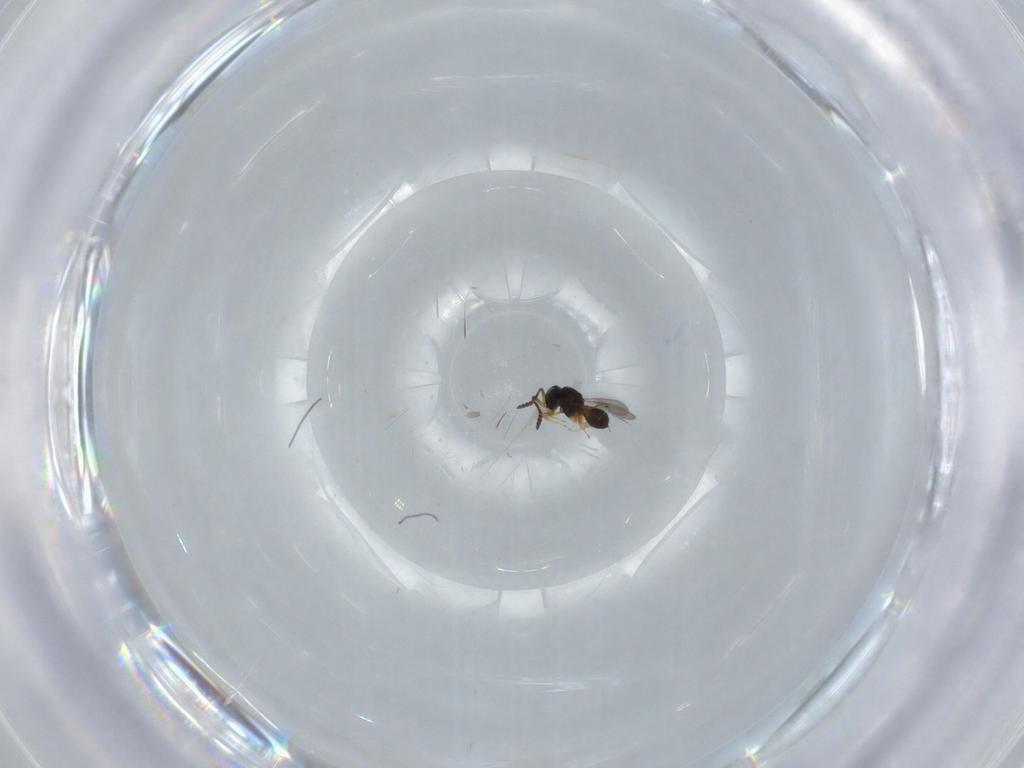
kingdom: Animalia
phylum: Arthropoda
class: Insecta
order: Hymenoptera
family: Scelionidae
